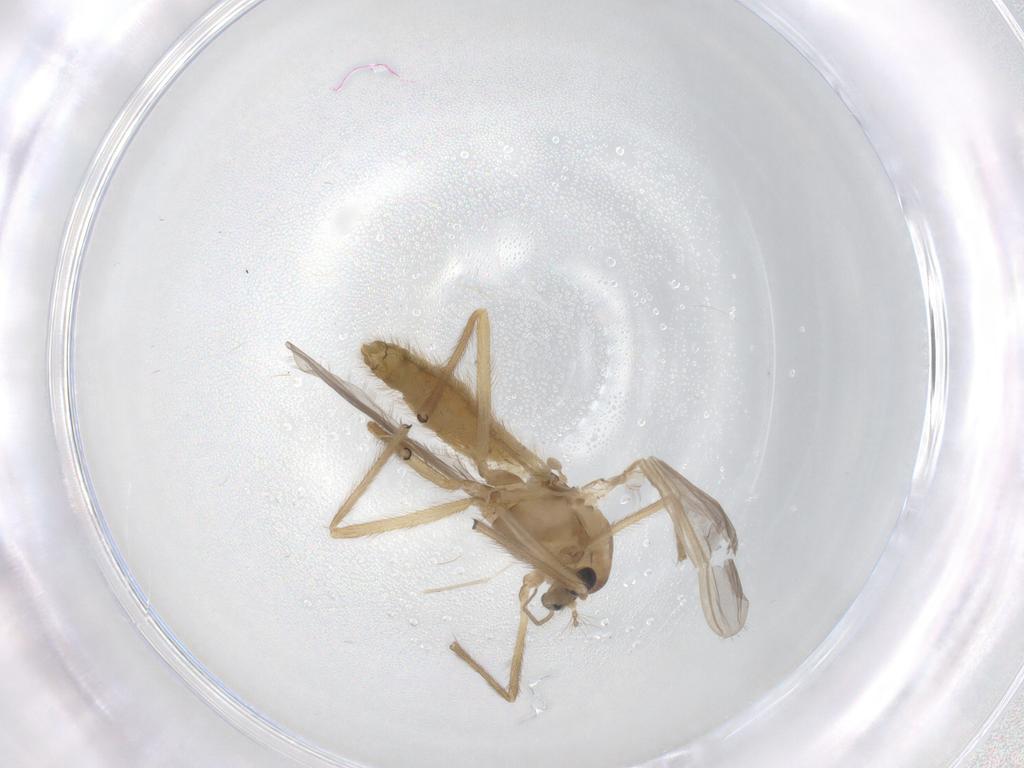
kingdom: Animalia
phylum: Arthropoda
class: Insecta
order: Diptera
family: Chironomidae
